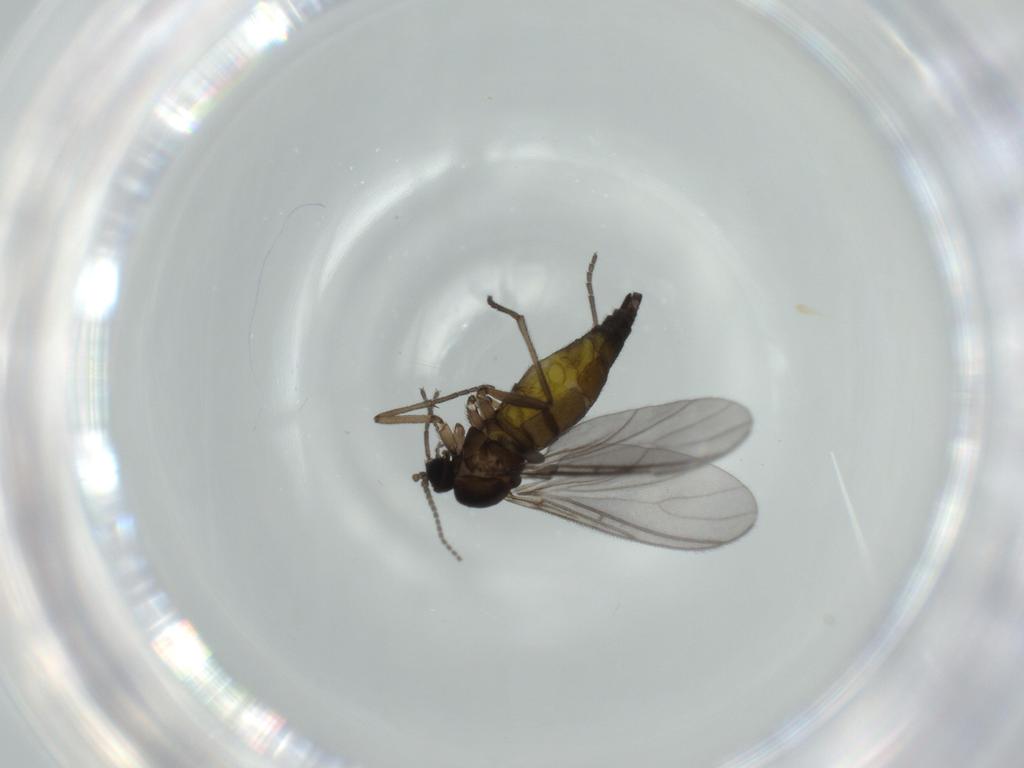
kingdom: Animalia
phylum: Arthropoda
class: Insecta
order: Diptera
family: Sciaridae
